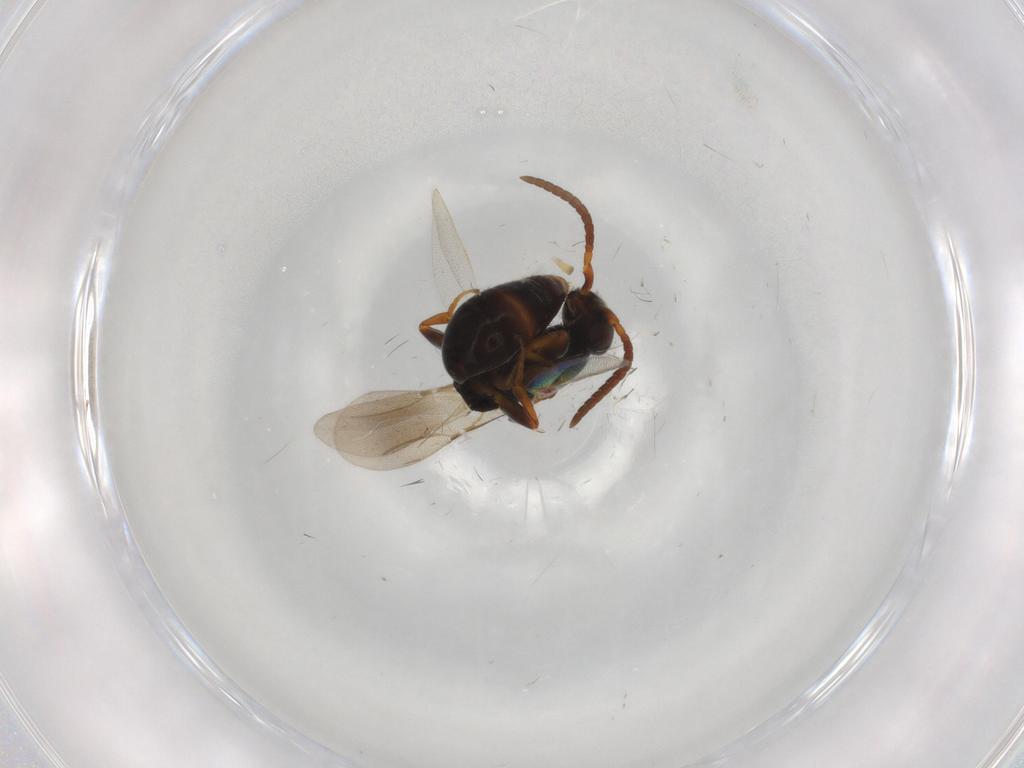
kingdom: Animalia
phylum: Arthropoda
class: Insecta
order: Hymenoptera
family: Bethylidae
